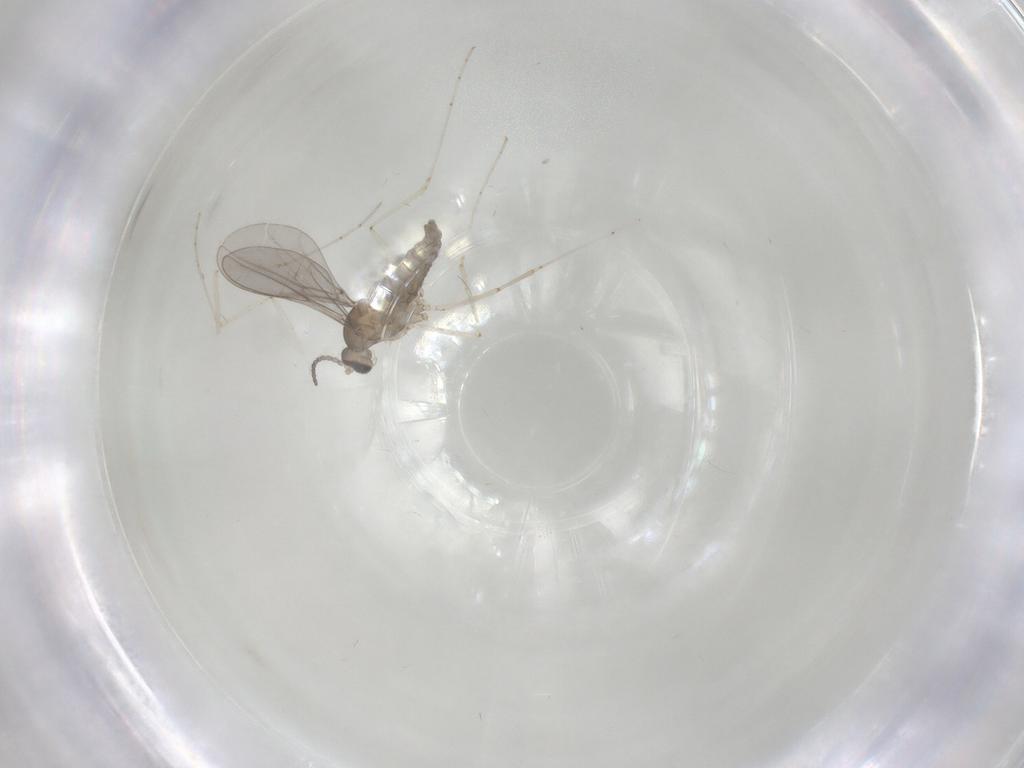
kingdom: Animalia
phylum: Arthropoda
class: Insecta
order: Diptera
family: Cecidomyiidae
